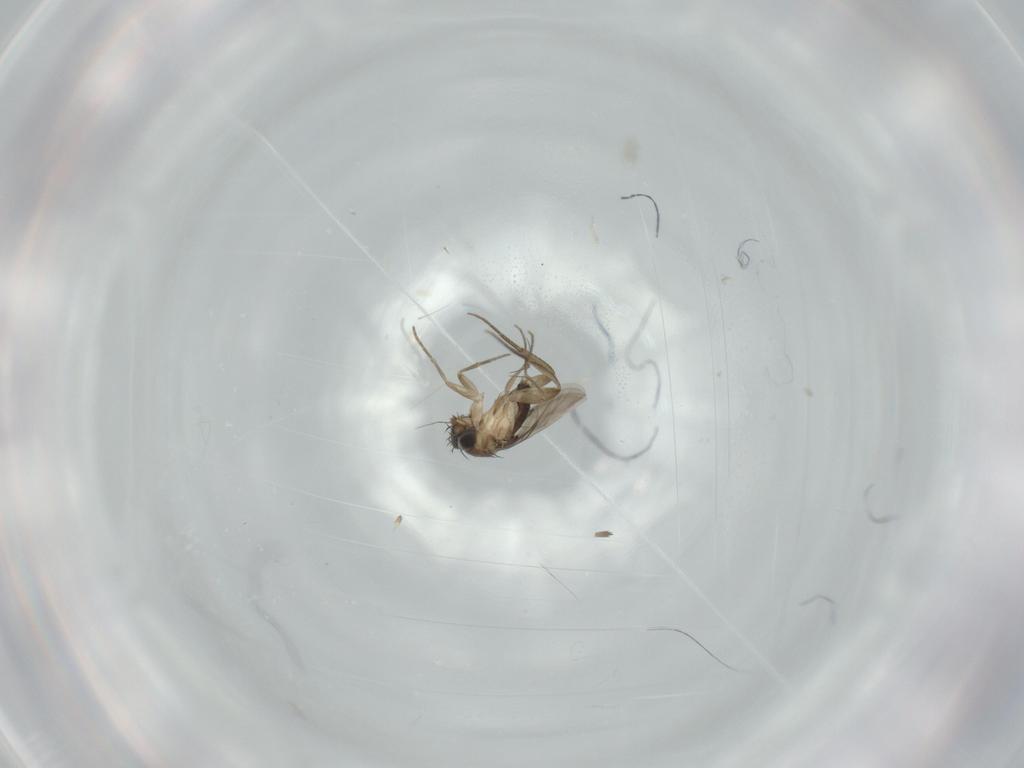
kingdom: Animalia
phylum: Arthropoda
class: Insecta
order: Diptera
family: Phoridae
